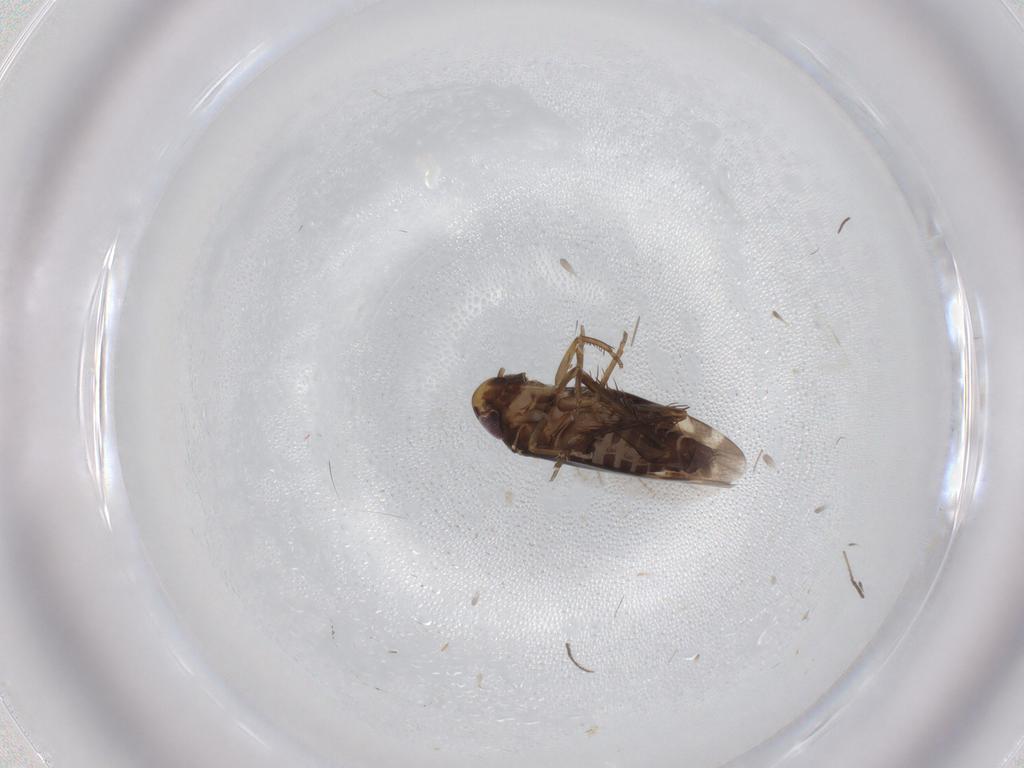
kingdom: Animalia
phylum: Arthropoda
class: Insecta
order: Hemiptera
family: Cicadellidae
